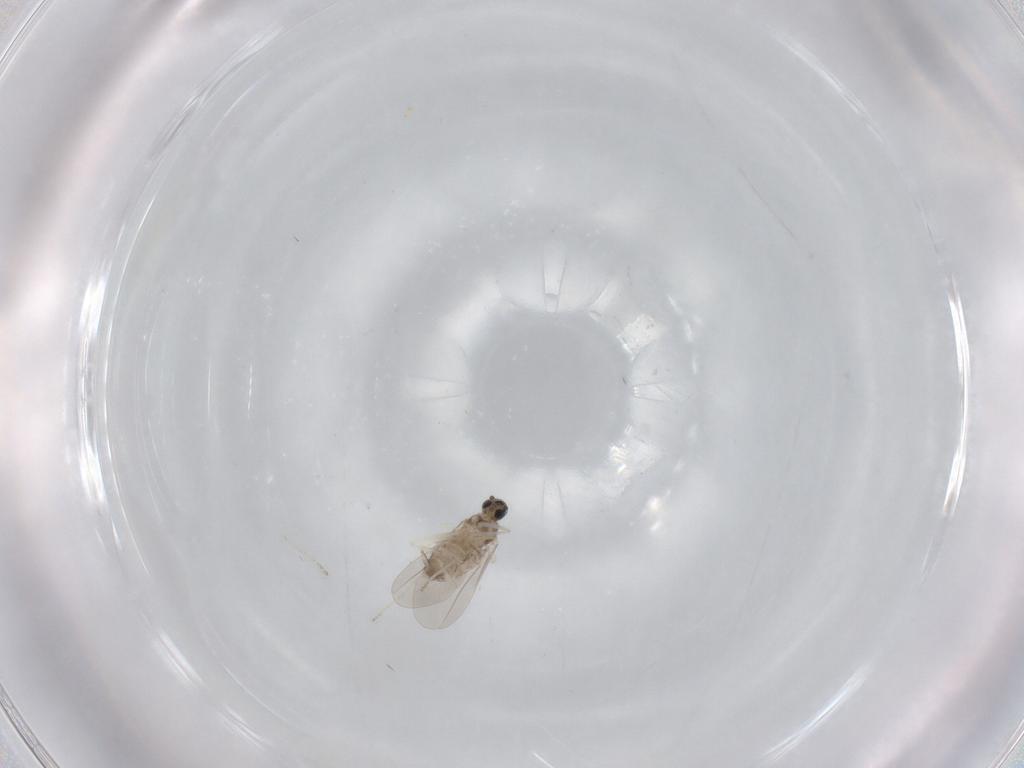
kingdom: Animalia
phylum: Arthropoda
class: Insecta
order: Diptera
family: Cecidomyiidae
